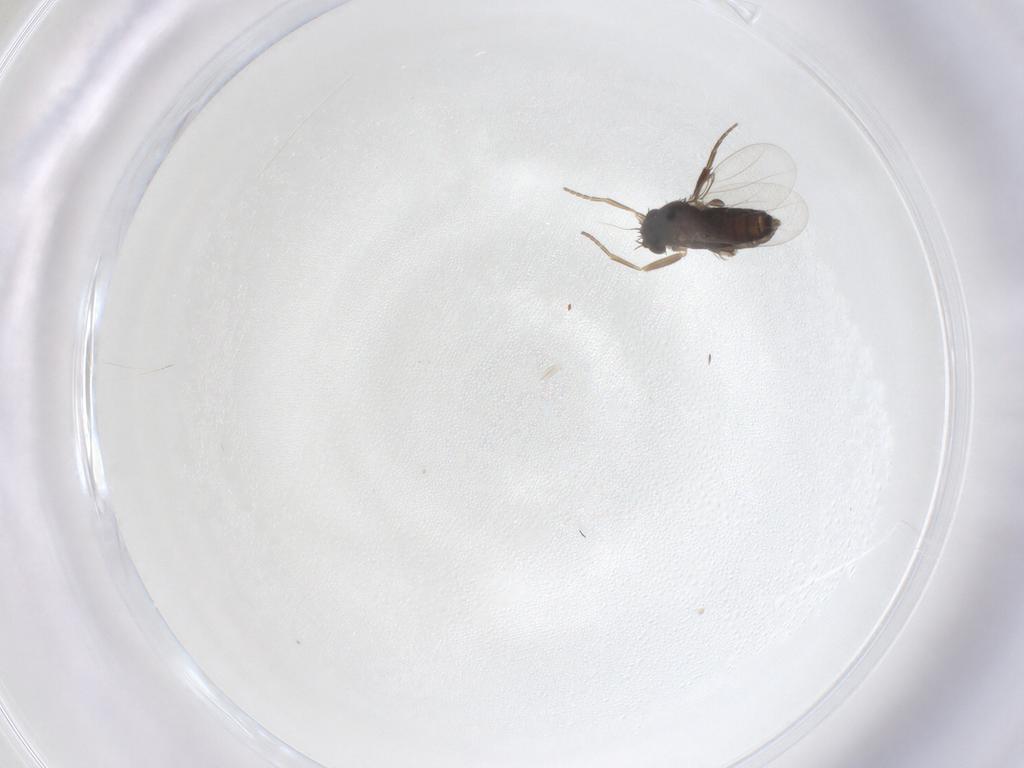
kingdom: Animalia
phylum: Arthropoda
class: Insecta
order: Diptera
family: Phoridae
